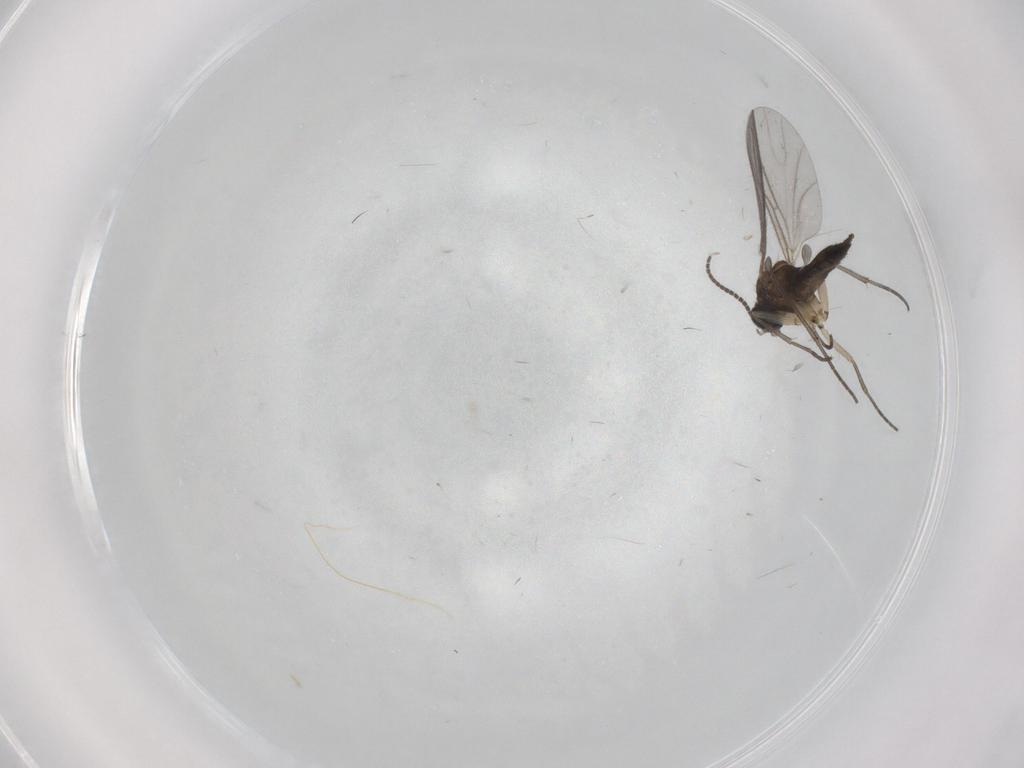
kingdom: Animalia
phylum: Arthropoda
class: Insecta
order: Diptera
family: Sciaridae
